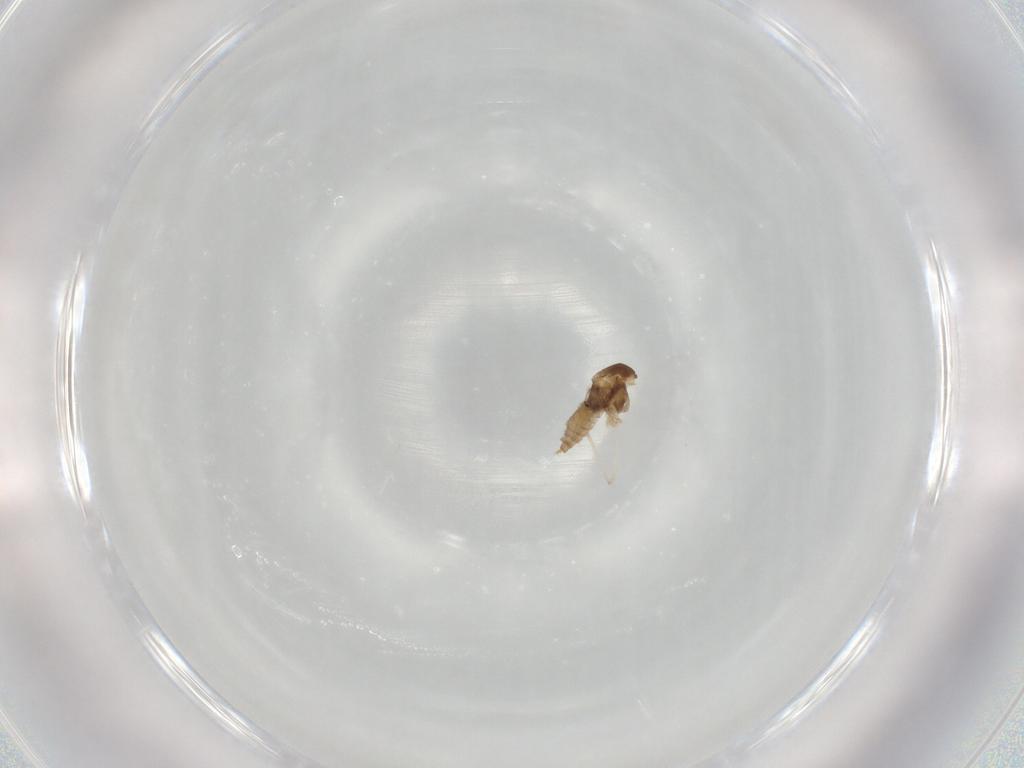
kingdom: Animalia
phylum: Arthropoda
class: Insecta
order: Diptera
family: Cecidomyiidae
